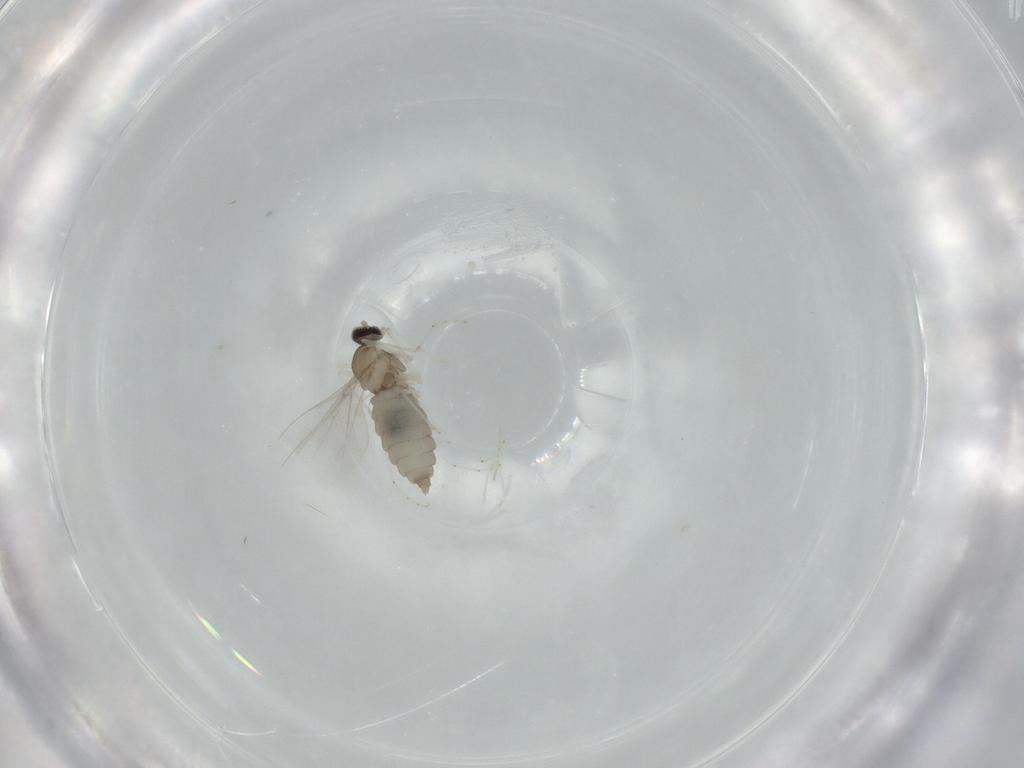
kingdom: Animalia
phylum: Arthropoda
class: Insecta
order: Diptera
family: Cecidomyiidae
